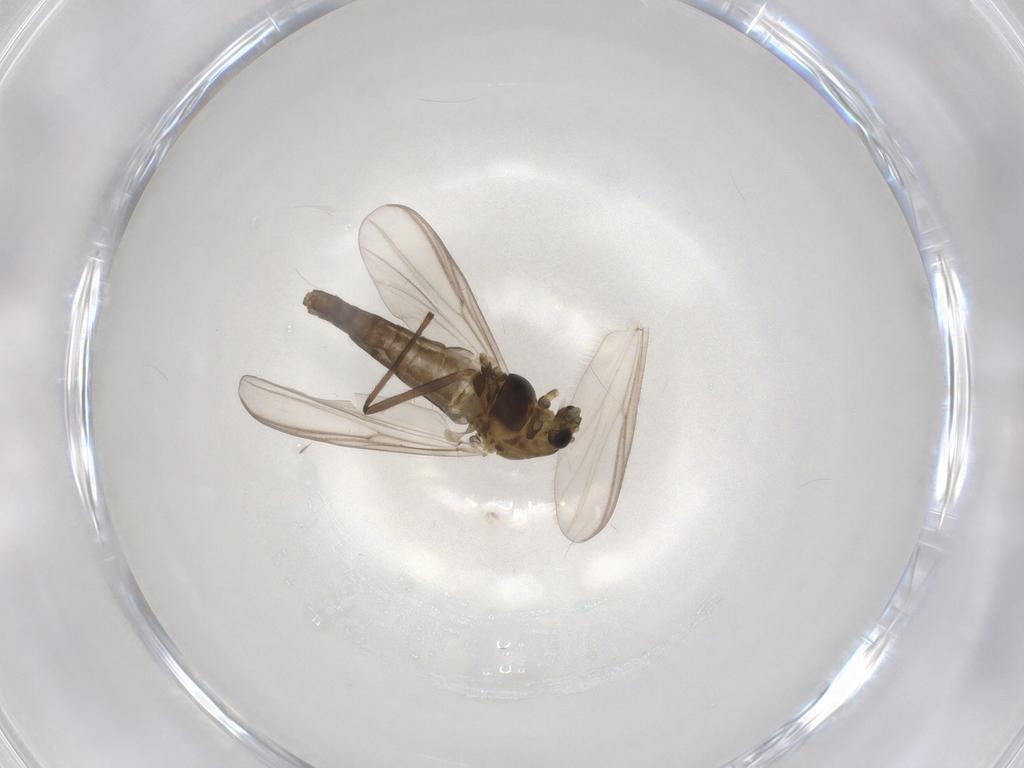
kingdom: Animalia
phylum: Arthropoda
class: Insecta
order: Diptera
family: Chironomidae
